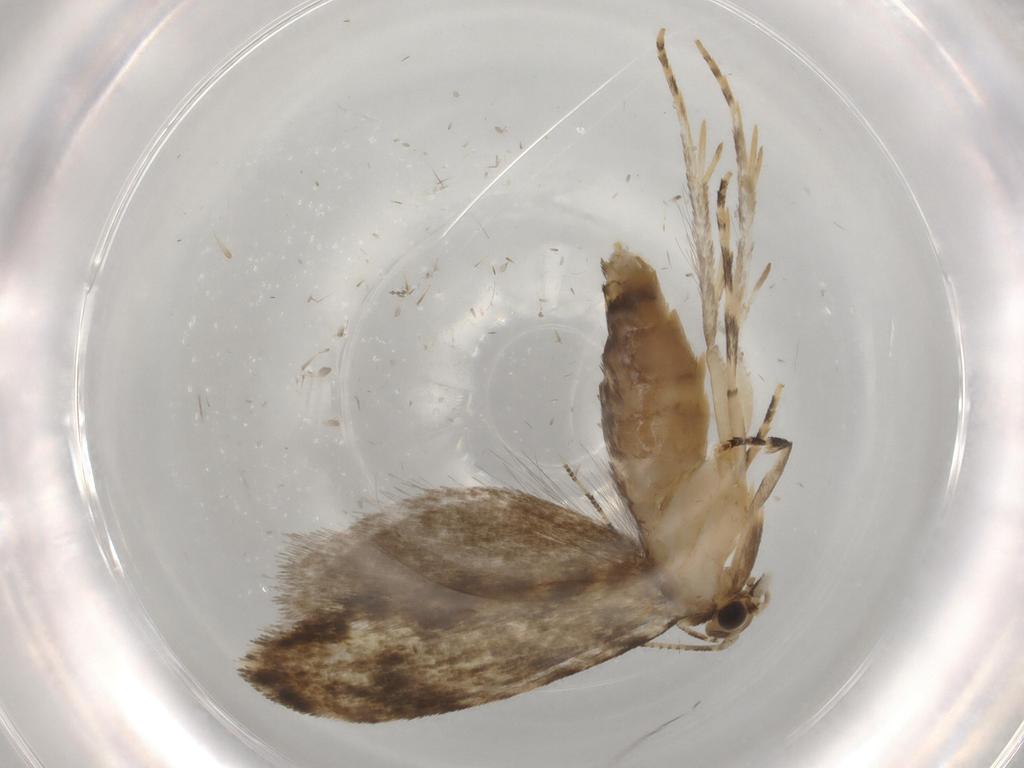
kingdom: Animalia
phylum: Arthropoda
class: Insecta
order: Lepidoptera
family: Tineidae
